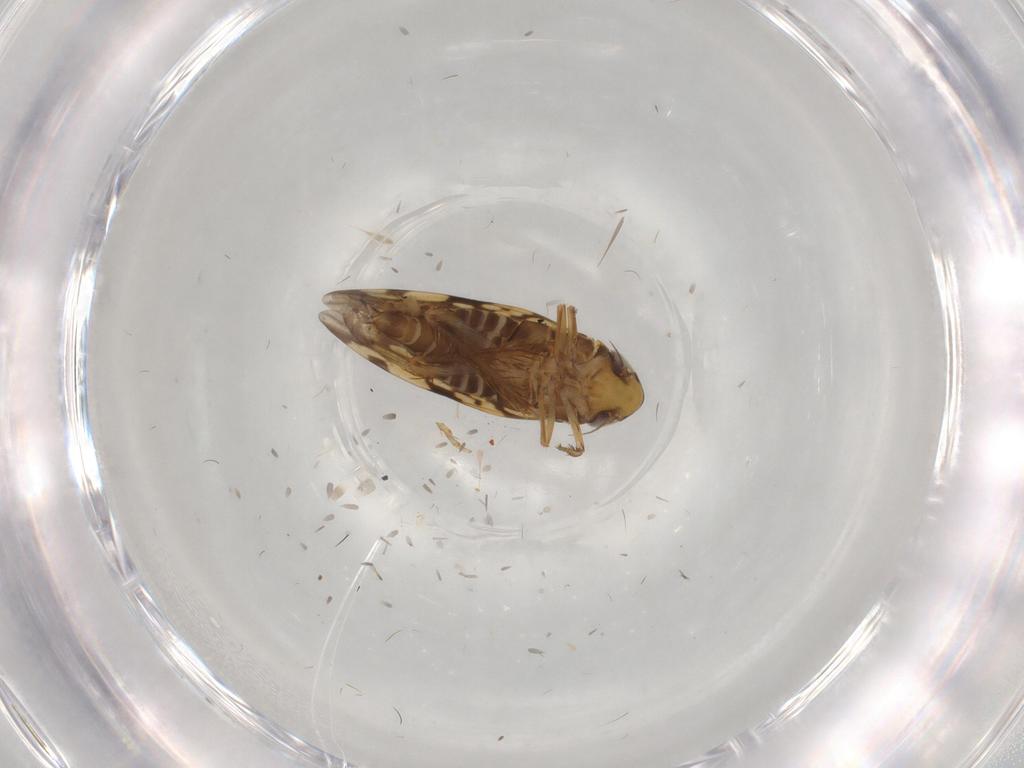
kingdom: Animalia
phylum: Arthropoda
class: Insecta
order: Hemiptera
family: Cicadellidae
